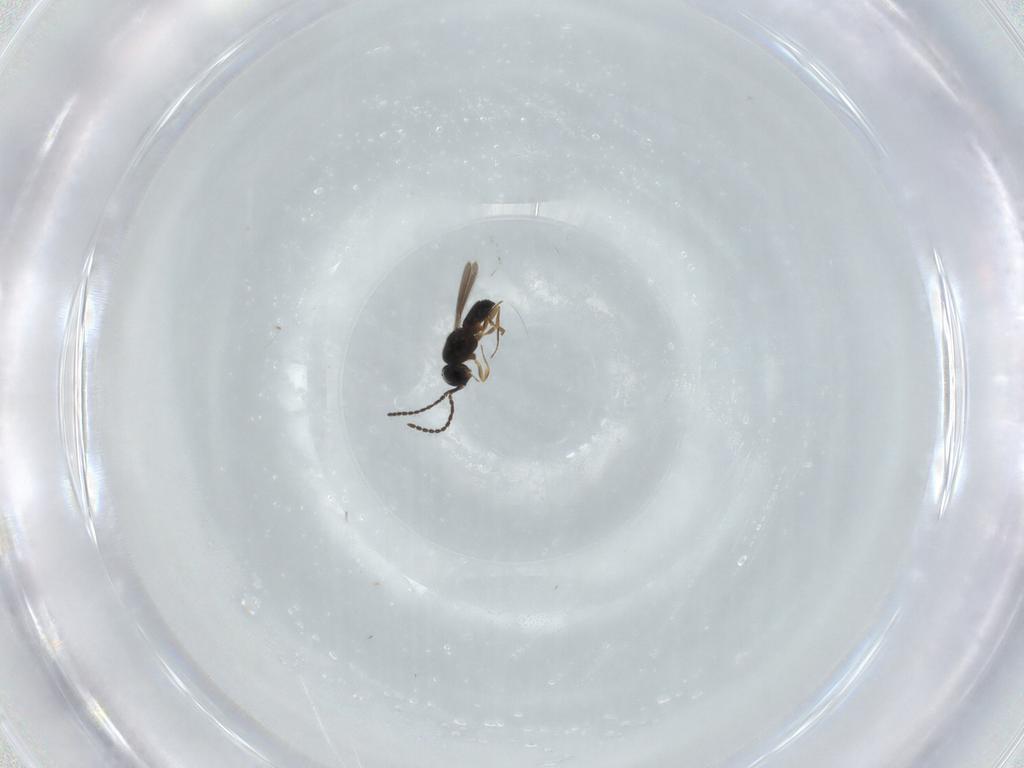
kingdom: Animalia
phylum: Arthropoda
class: Insecta
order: Hymenoptera
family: Scelionidae
